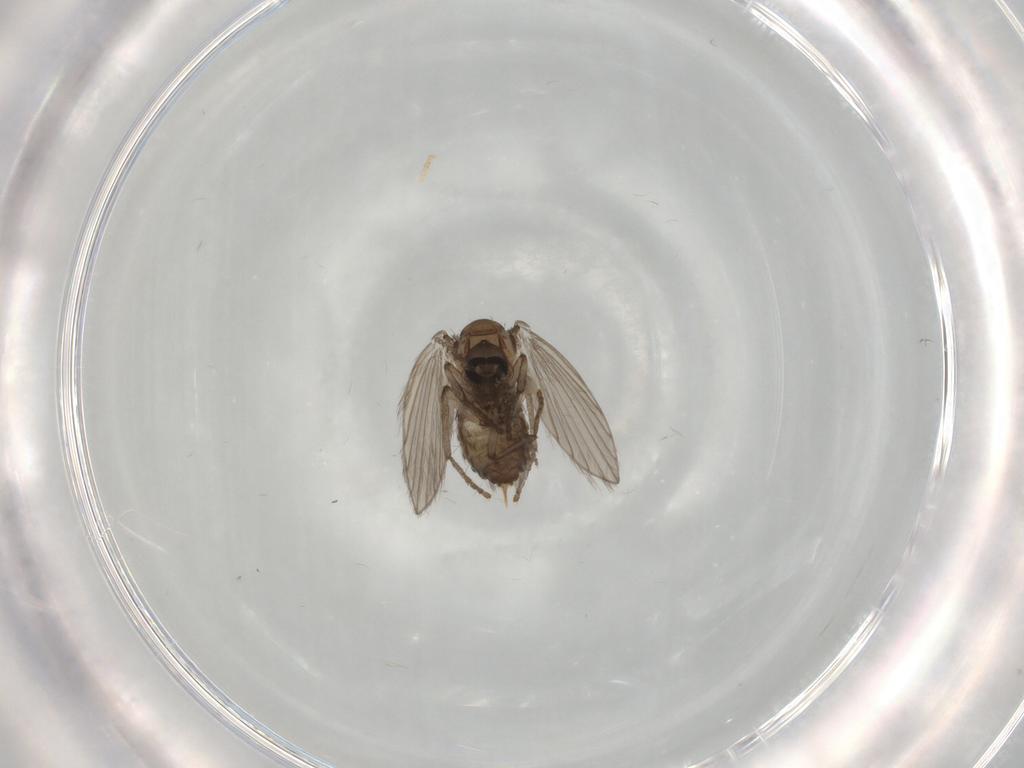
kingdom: Animalia
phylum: Arthropoda
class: Insecta
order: Diptera
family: Psychodidae
